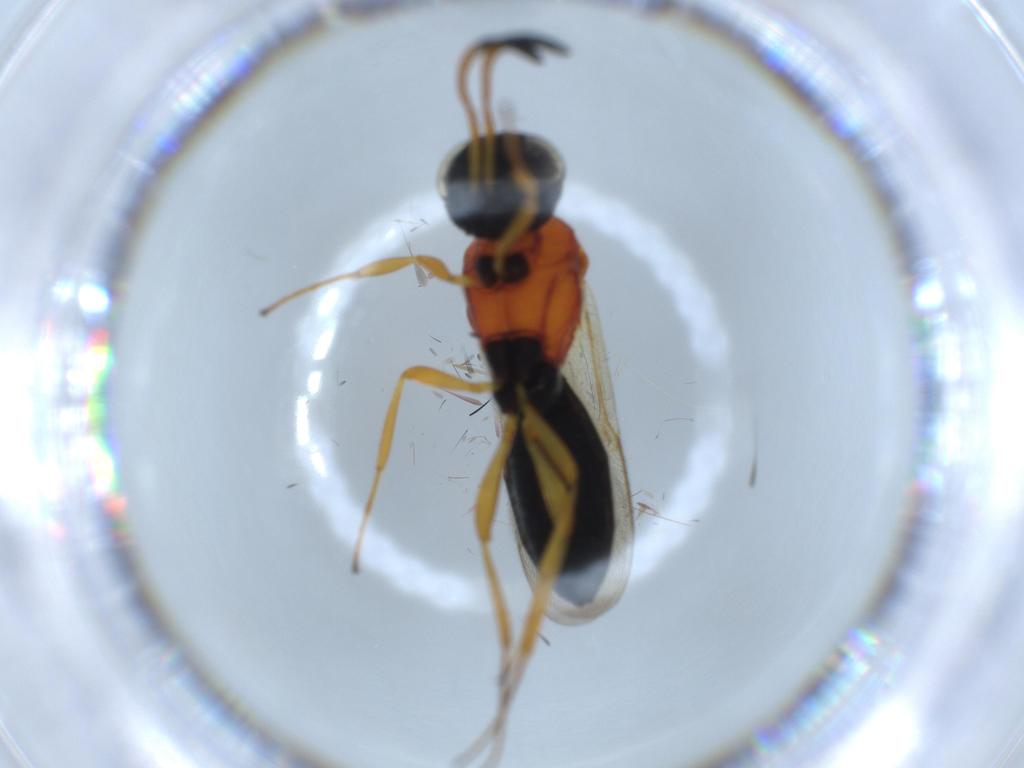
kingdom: Animalia
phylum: Arthropoda
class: Insecta
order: Hymenoptera
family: Scelionidae
